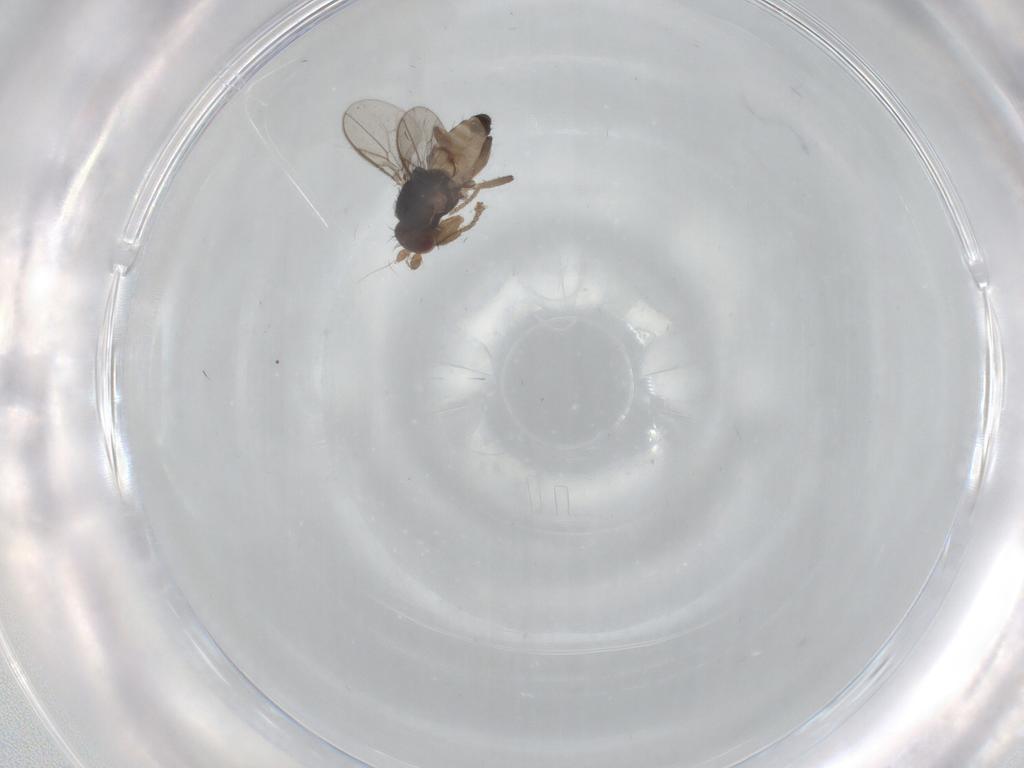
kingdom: Animalia
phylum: Arthropoda
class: Insecta
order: Diptera
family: Sphaeroceridae
